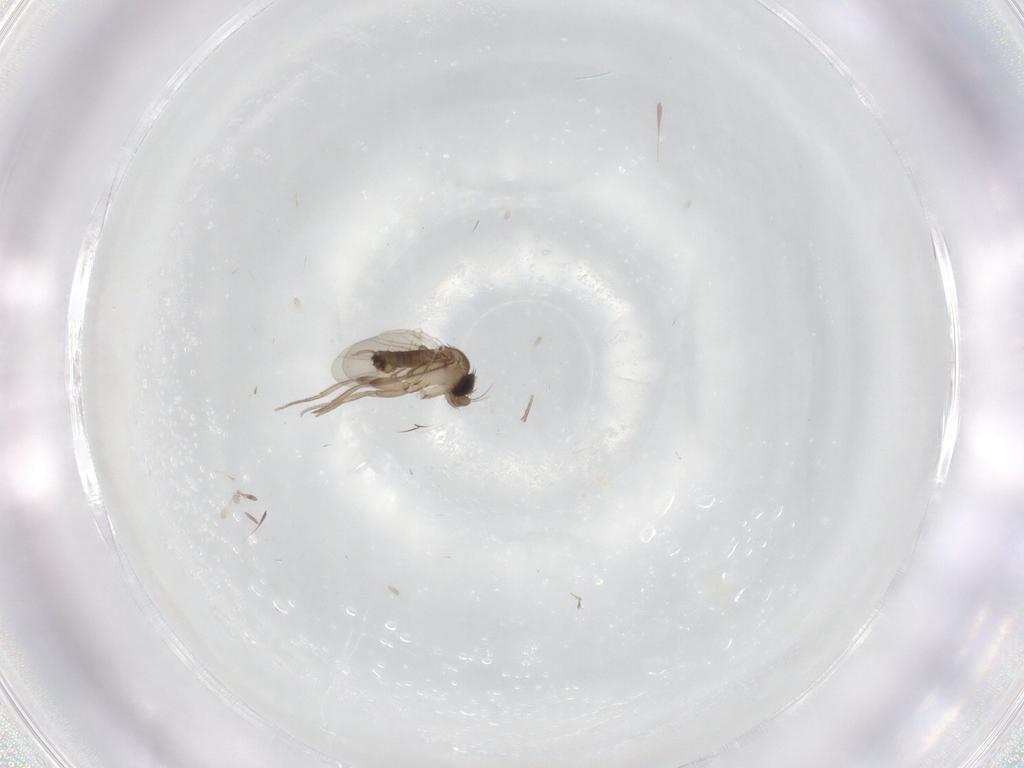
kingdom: Animalia
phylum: Arthropoda
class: Insecta
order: Diptera
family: Phoridae
